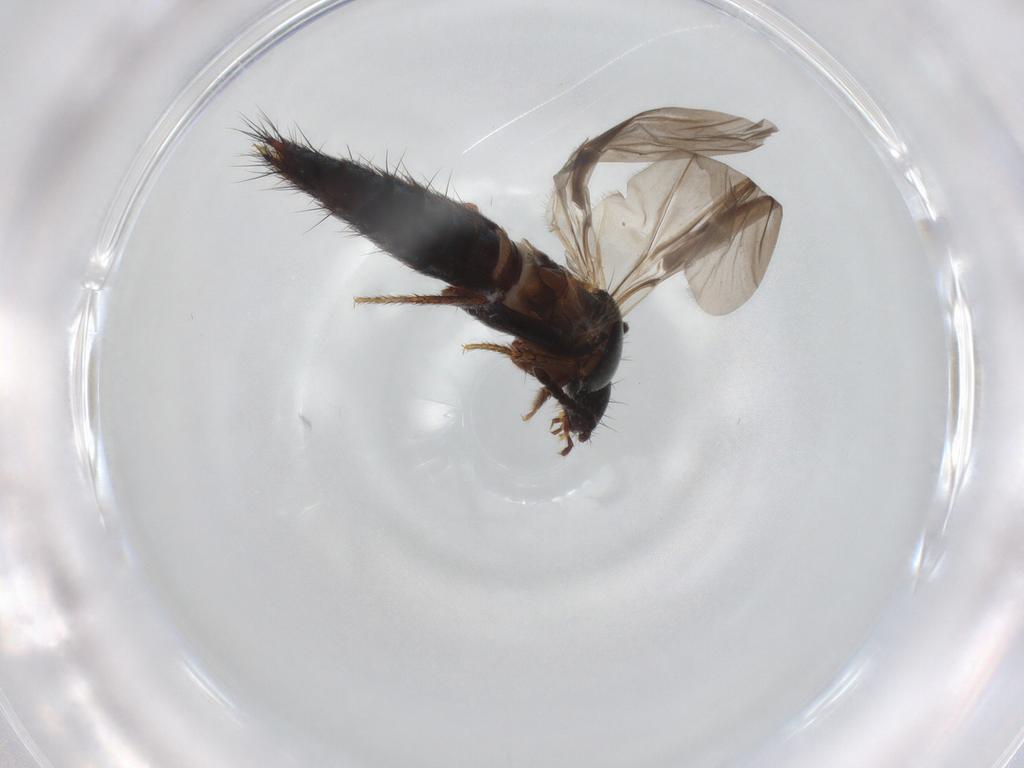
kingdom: Animalia
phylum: Arthropoda
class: Insecta
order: Coleoptera
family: Staphylinidae
